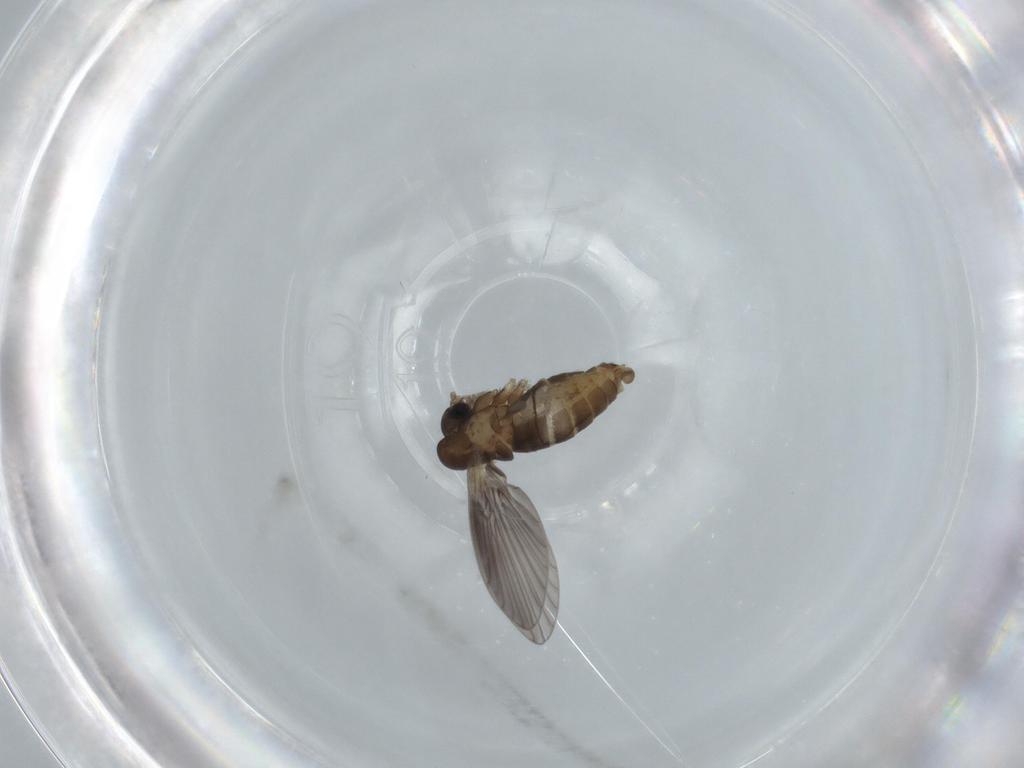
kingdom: Animalia
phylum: Arthropoda
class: Insecta
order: Diptera
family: Psychodidae
